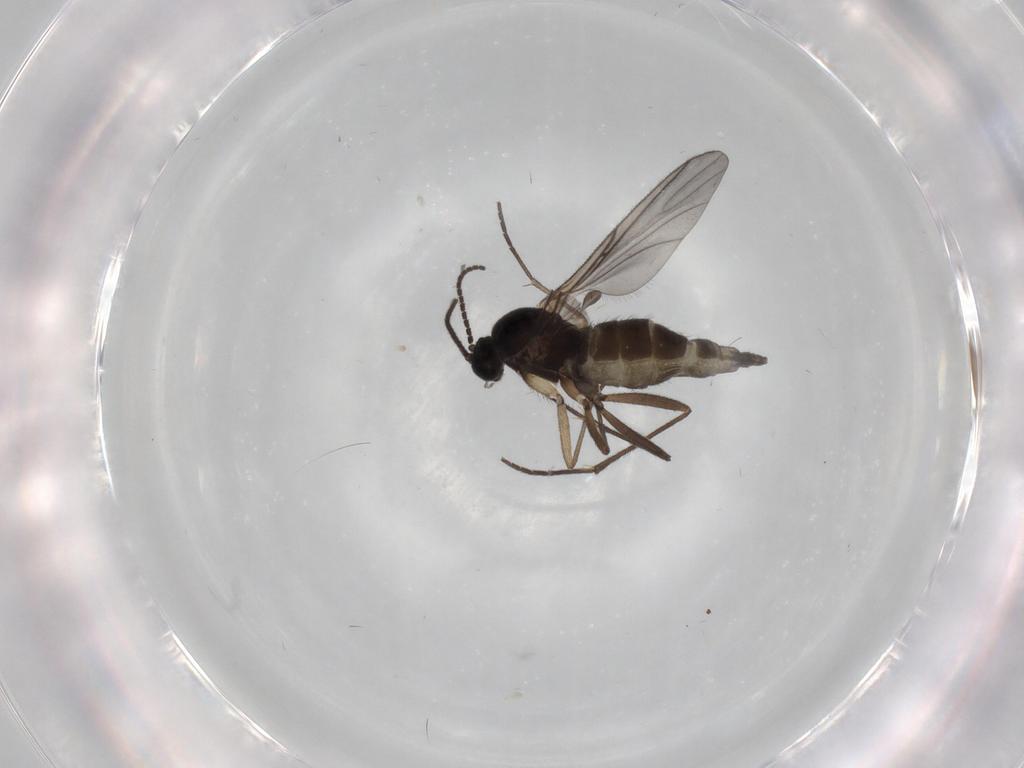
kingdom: Animalia
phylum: Arthropoda
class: Insecta
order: Diptera
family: Sciaridae
